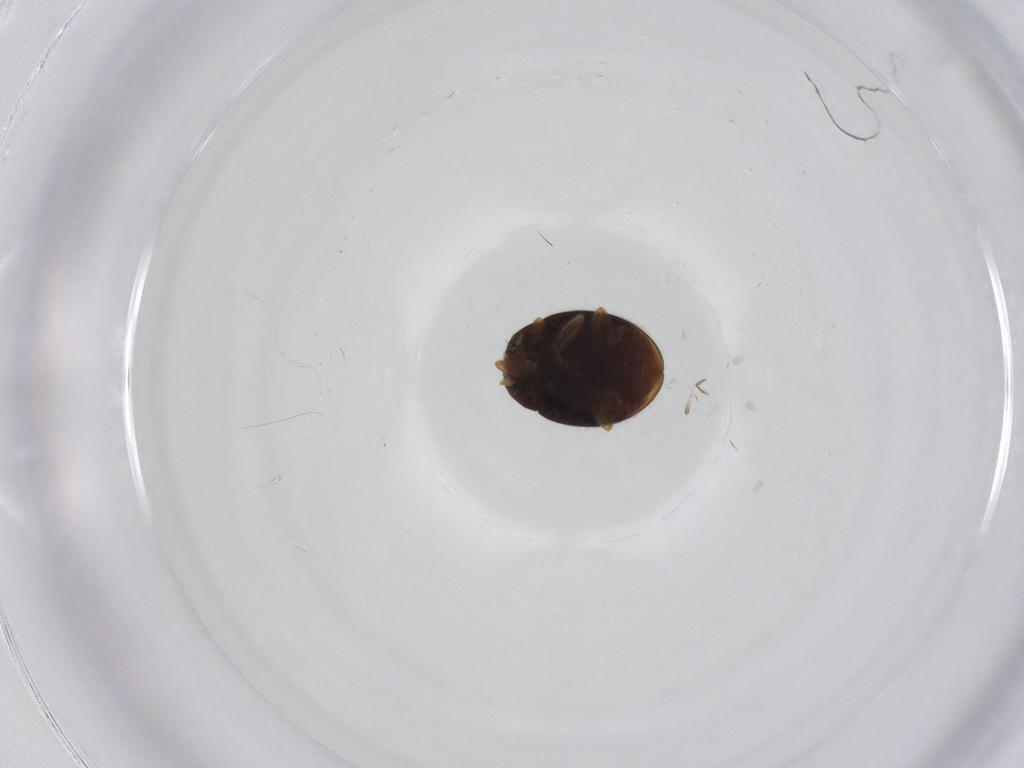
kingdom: Animalia
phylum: Arthropoda
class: Insecta
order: Coleoptera
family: Coccinellidae
